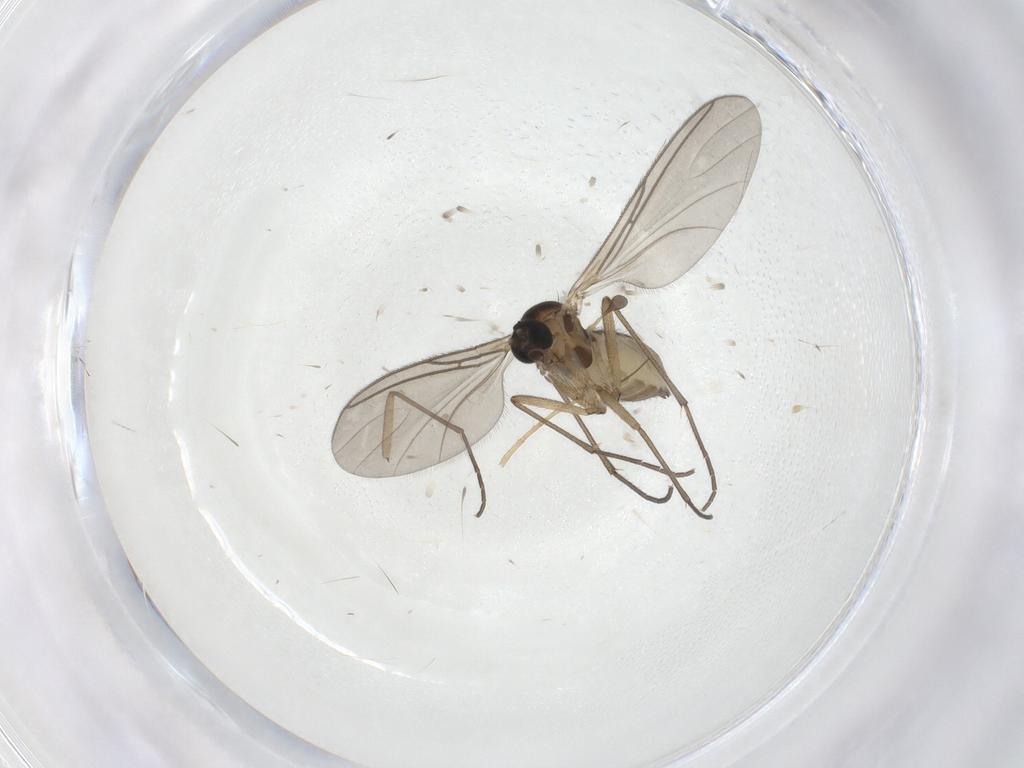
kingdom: Animalia
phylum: Arthropoda
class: Insecta
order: Diptera
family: Sciaridae
